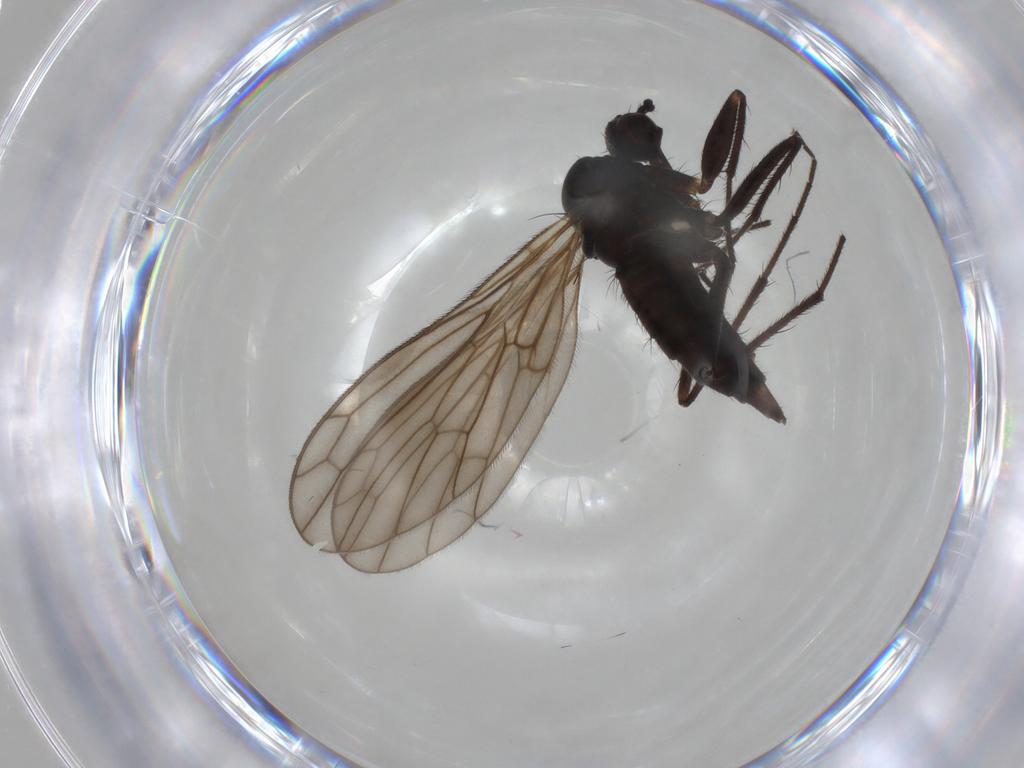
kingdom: Animalia
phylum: Arthropoda
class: Insecta
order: Diptera
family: Empididae
